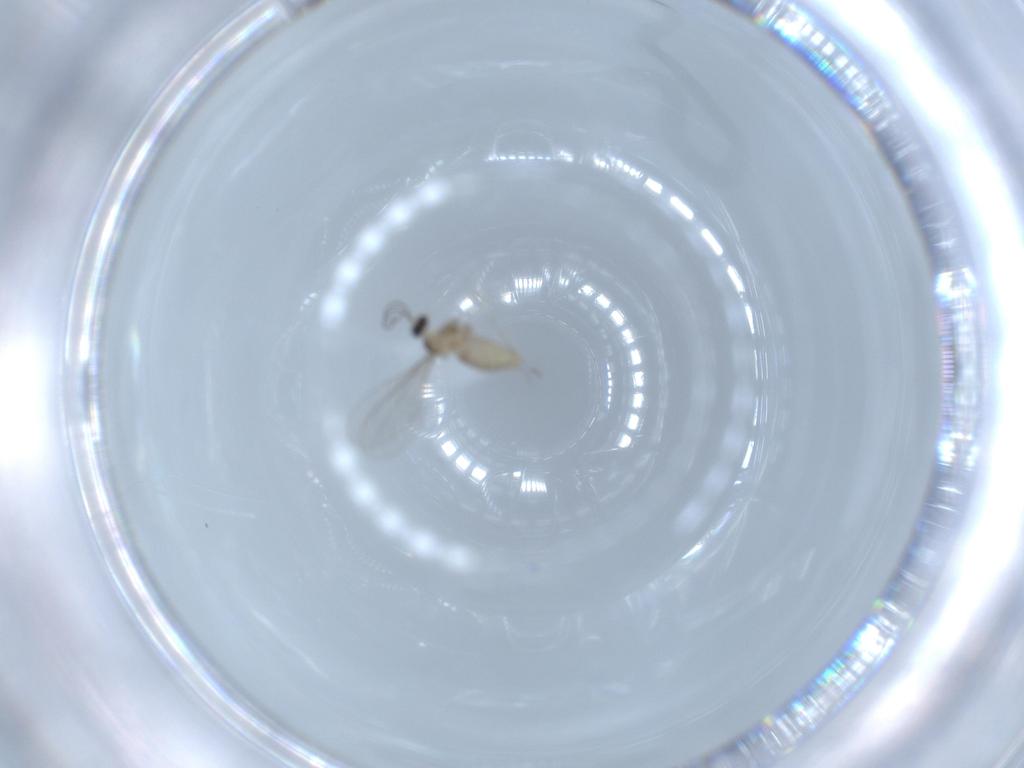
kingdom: Animalia
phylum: Arthropoda
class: Insecta
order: Diptera
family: Cecidomyiidae
